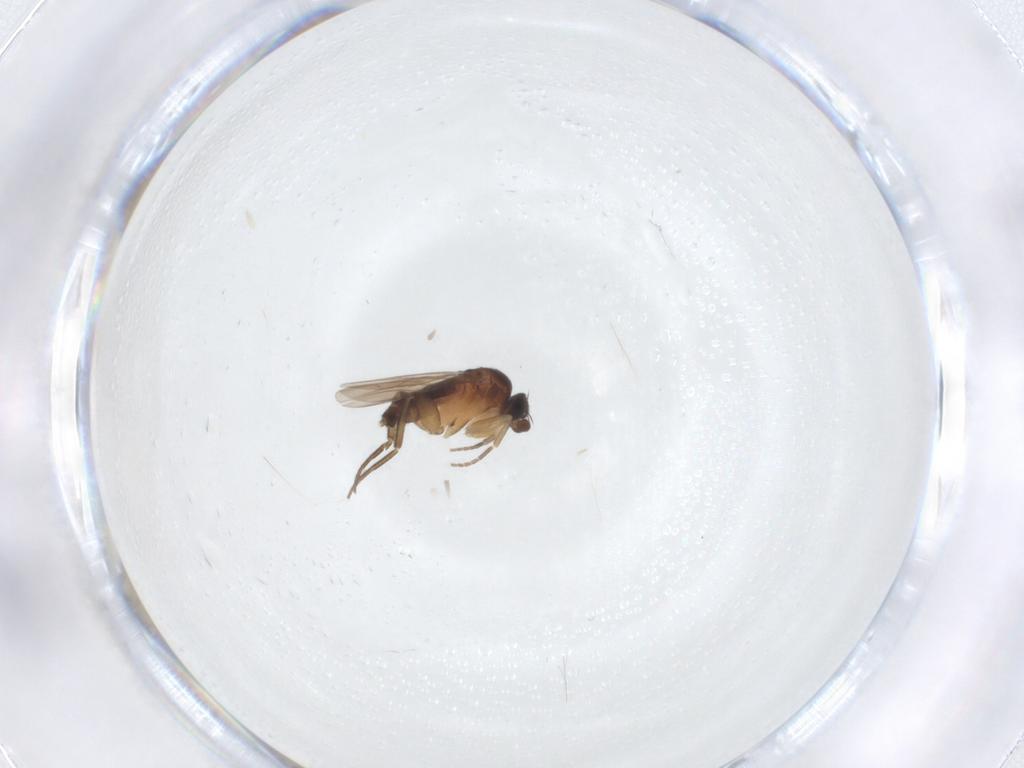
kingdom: Animalia
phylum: Arthropoda
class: Insecta
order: Diptera
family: Phoridae
